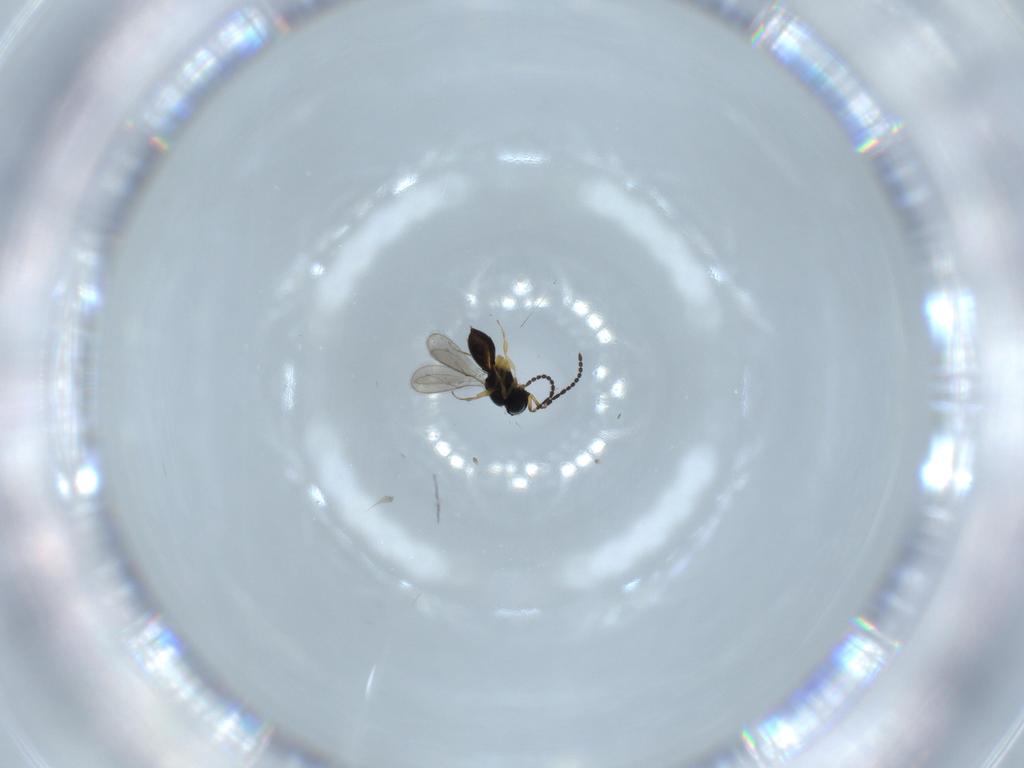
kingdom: Animalia
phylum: Arthropoda
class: Insecta
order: Hymenoptera
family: Scelionidae
